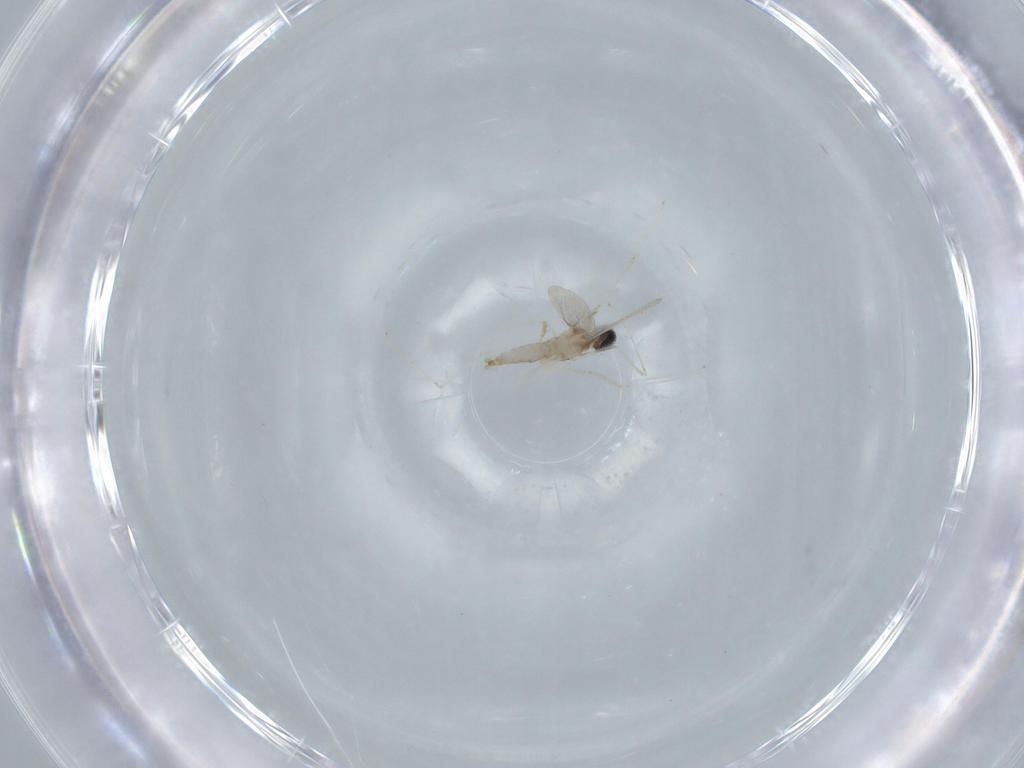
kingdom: Animalia
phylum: Arthropoda
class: Insecta
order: Diptera
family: Cecidomyiidae
